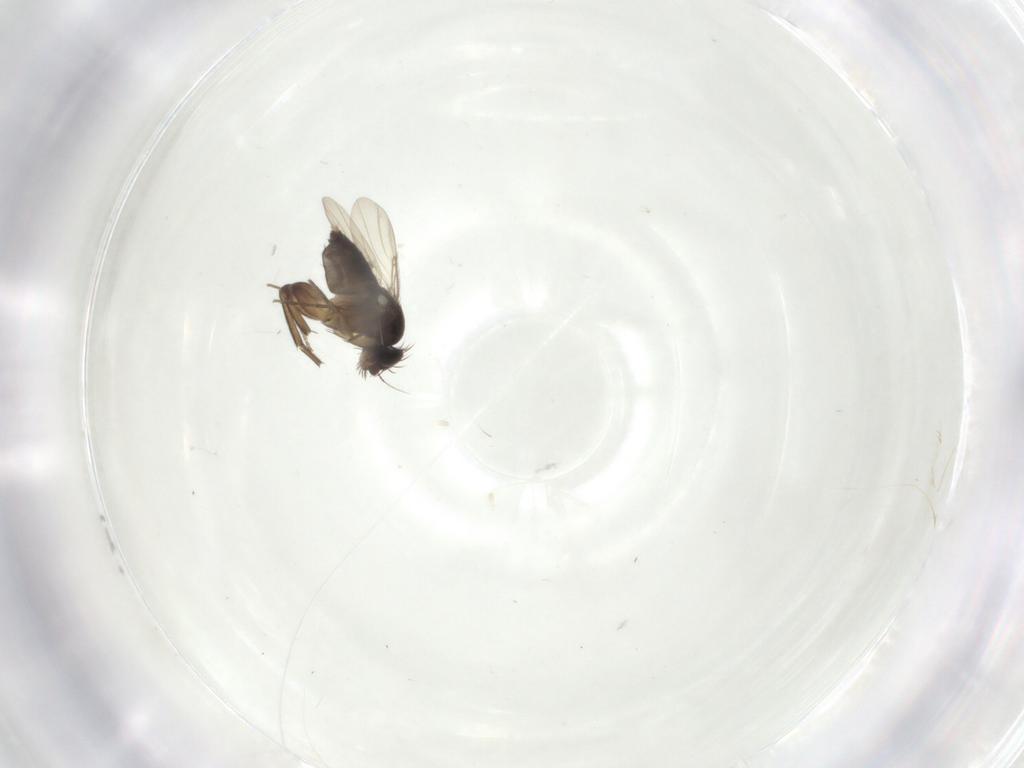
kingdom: Animalia
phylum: Arthropoda
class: Insecta
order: Diptera
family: Phoridae
